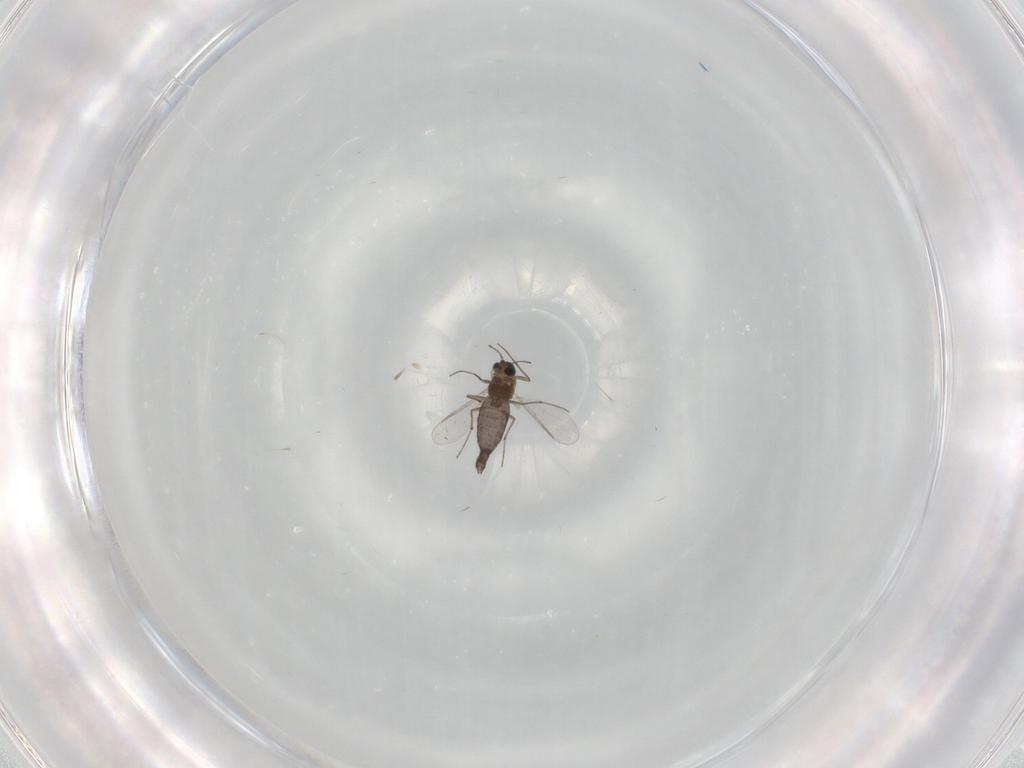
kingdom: Animalia
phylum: Arthropoda
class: Insecta
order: Diptera
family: Chironomidae
